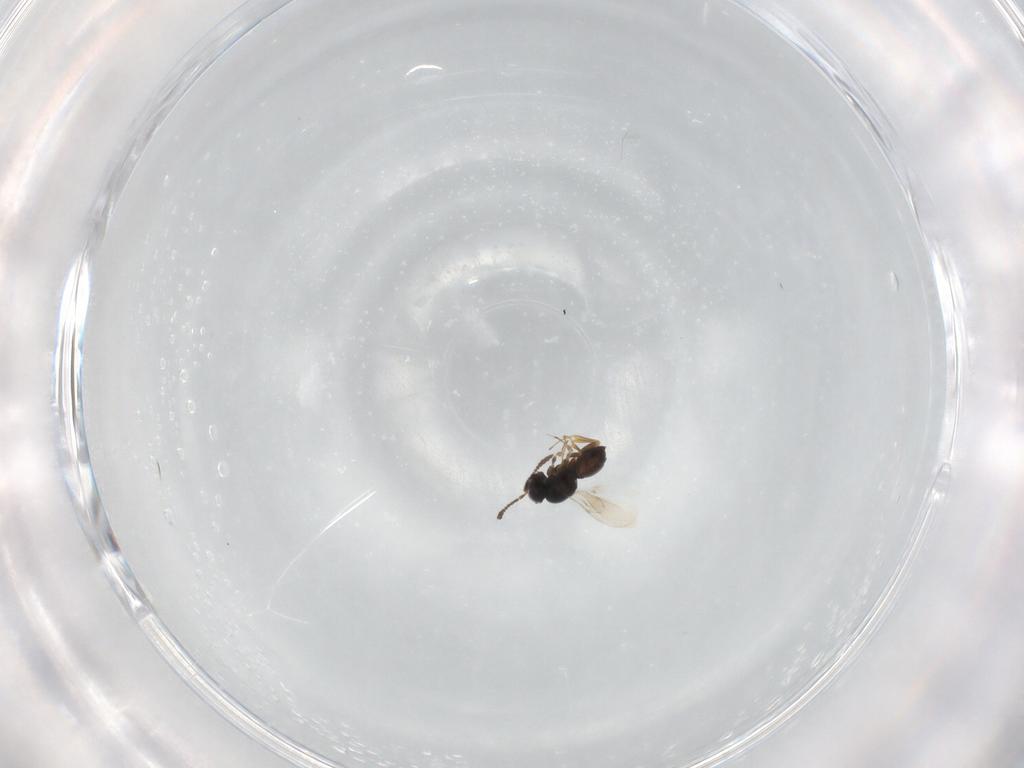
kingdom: Animalia
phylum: Arthropoda
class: Insecta
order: Hymenoptera
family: Scelionidae
